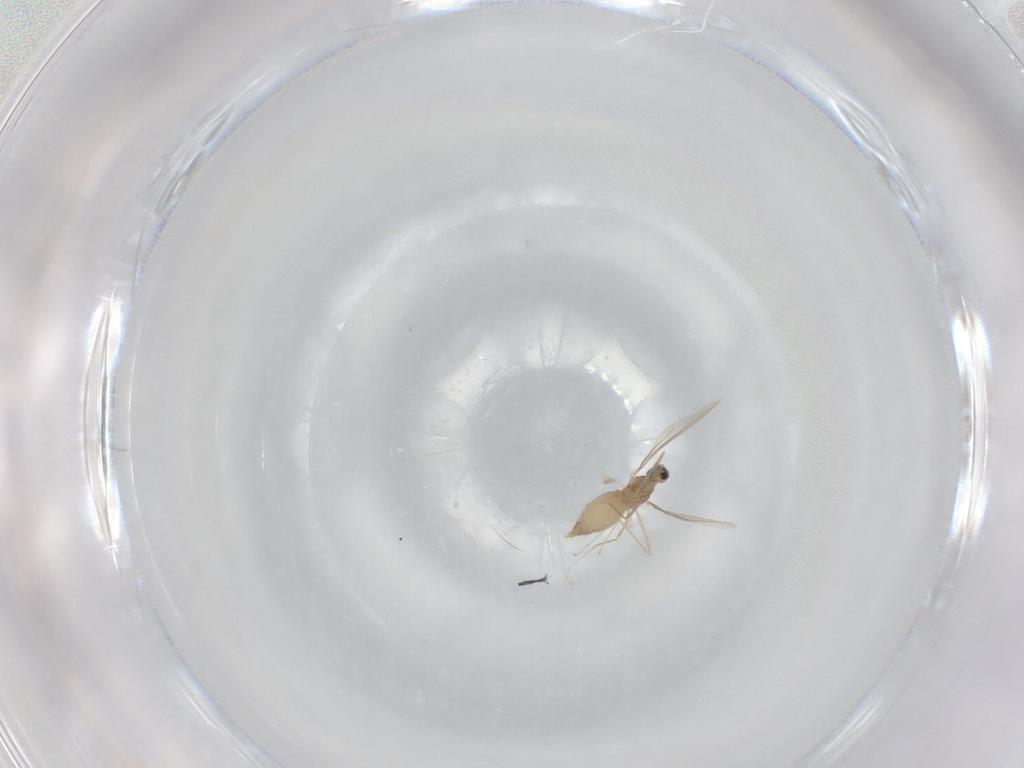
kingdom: Animalia
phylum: Arthropoda
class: Insecta
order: Diptera
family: Cecidomyiidae
